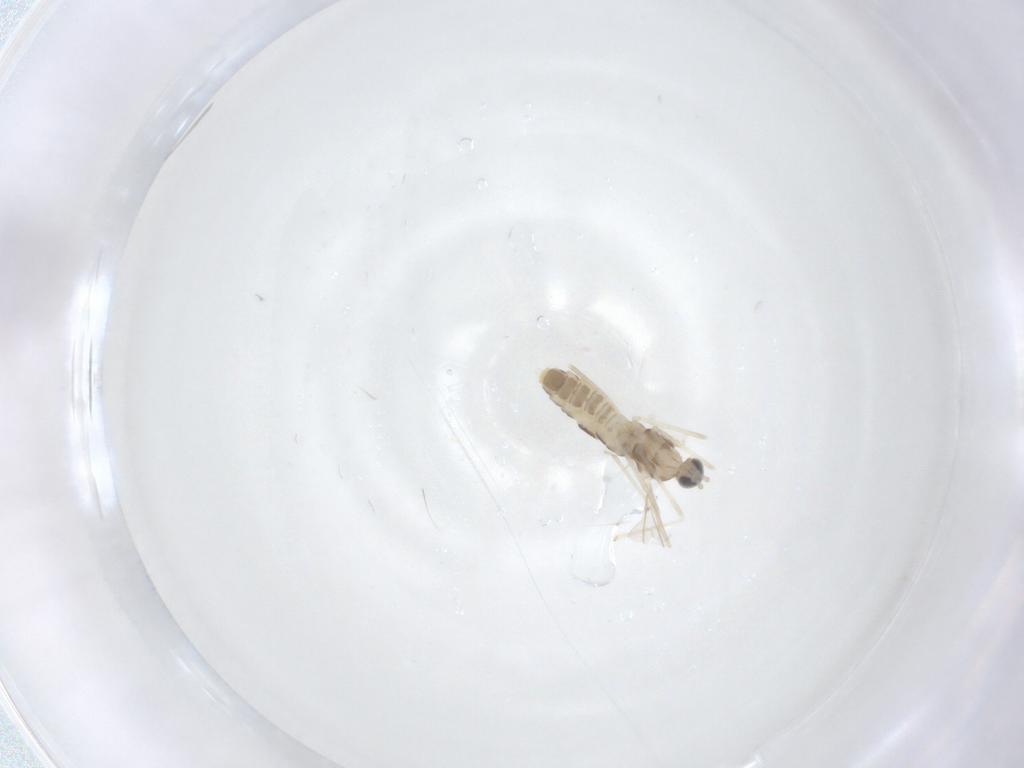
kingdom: Animalia
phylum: Arthropoda
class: Insecta
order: Diptera
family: Cecidomyiidae
